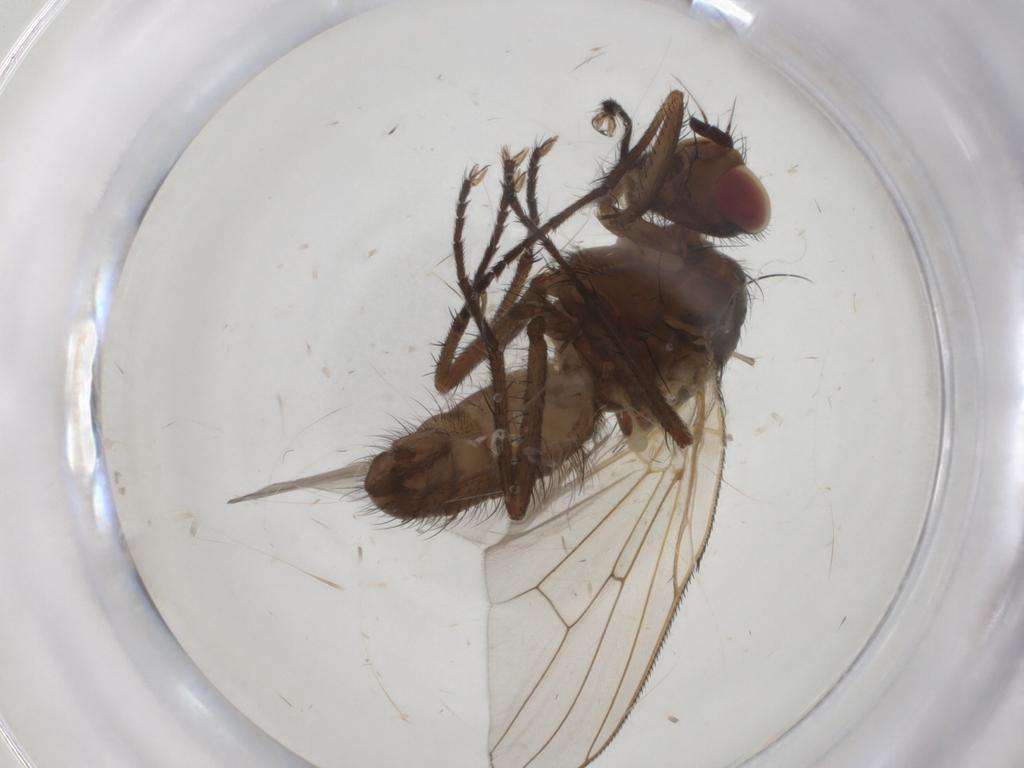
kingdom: Animalia
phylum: Arthropoda
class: Insecta
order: Diptera
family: Anthomyiidae
